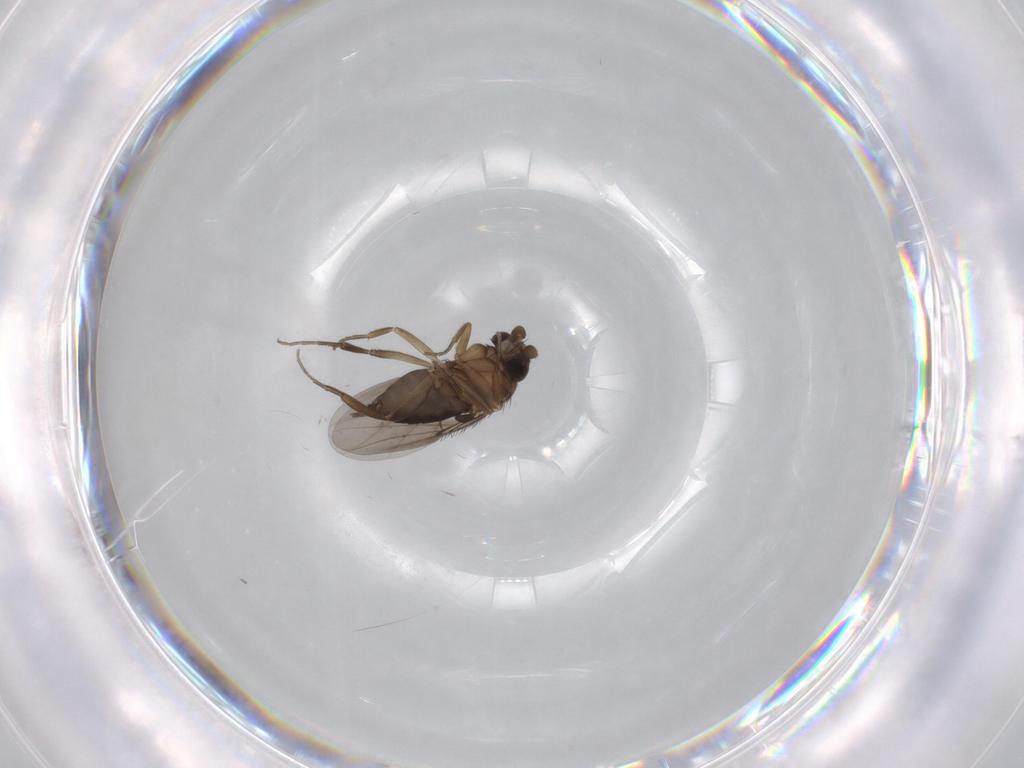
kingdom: Animalia
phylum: Arthropoda
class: Insecta
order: Diptera
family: Phoridae
